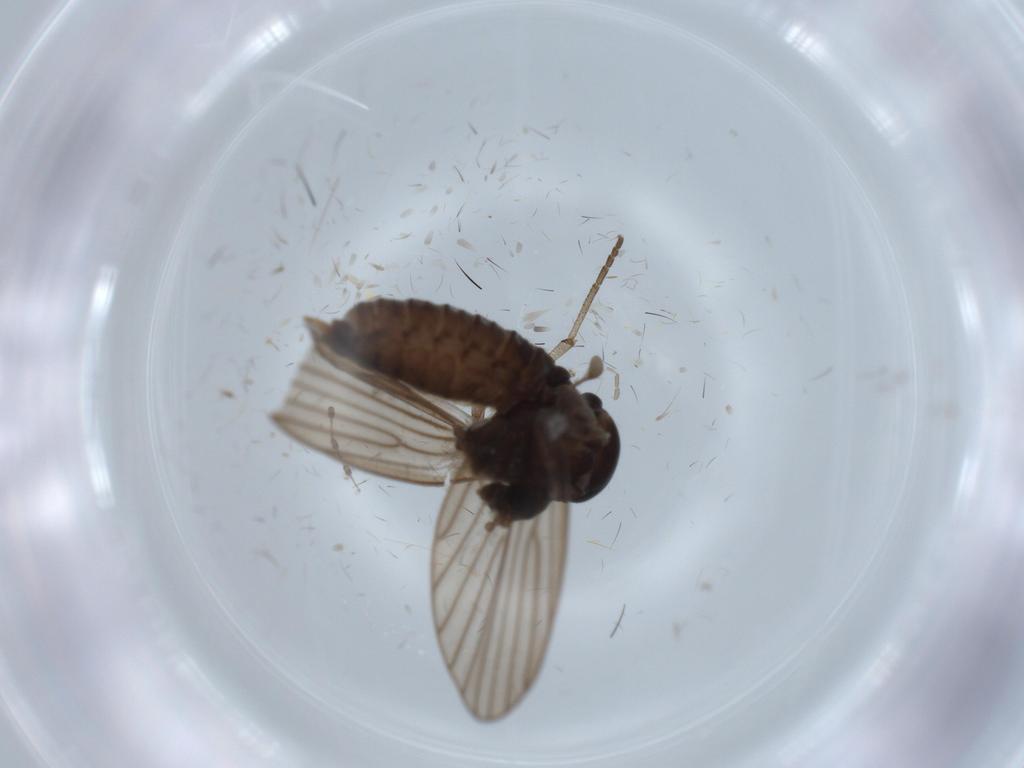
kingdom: Animalia
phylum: Arthropoda
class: Insecta
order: Diptera
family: Psychodidae
